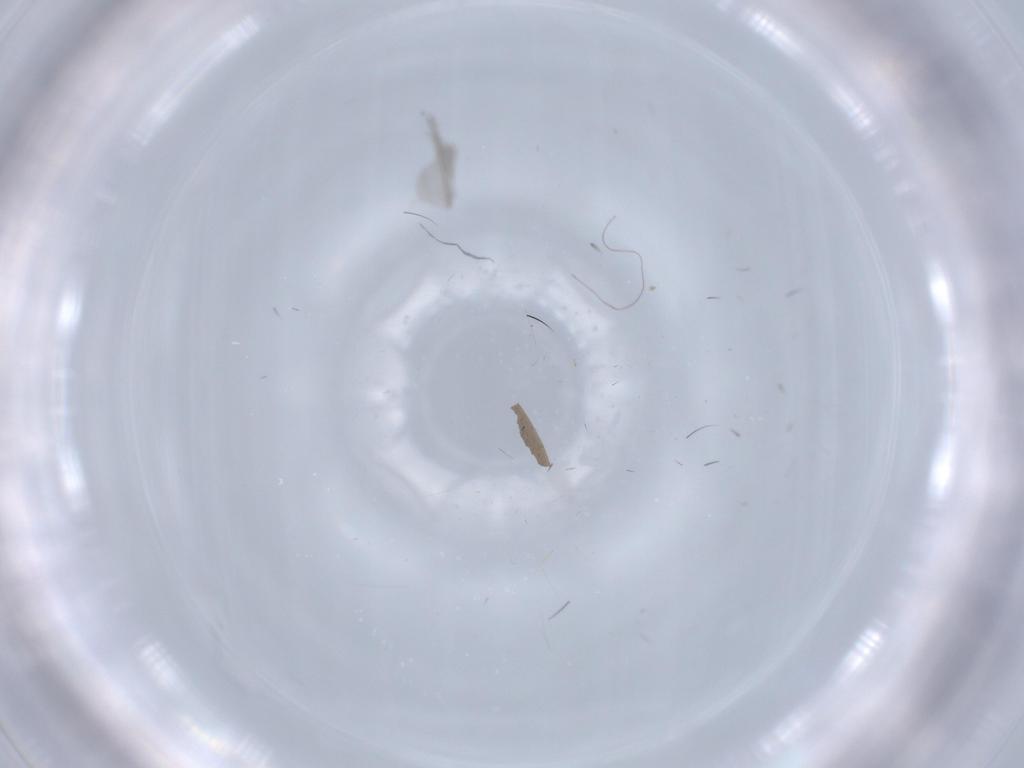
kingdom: Animalia
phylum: Arthropoda
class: Insecta
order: Diptera
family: Empididae
